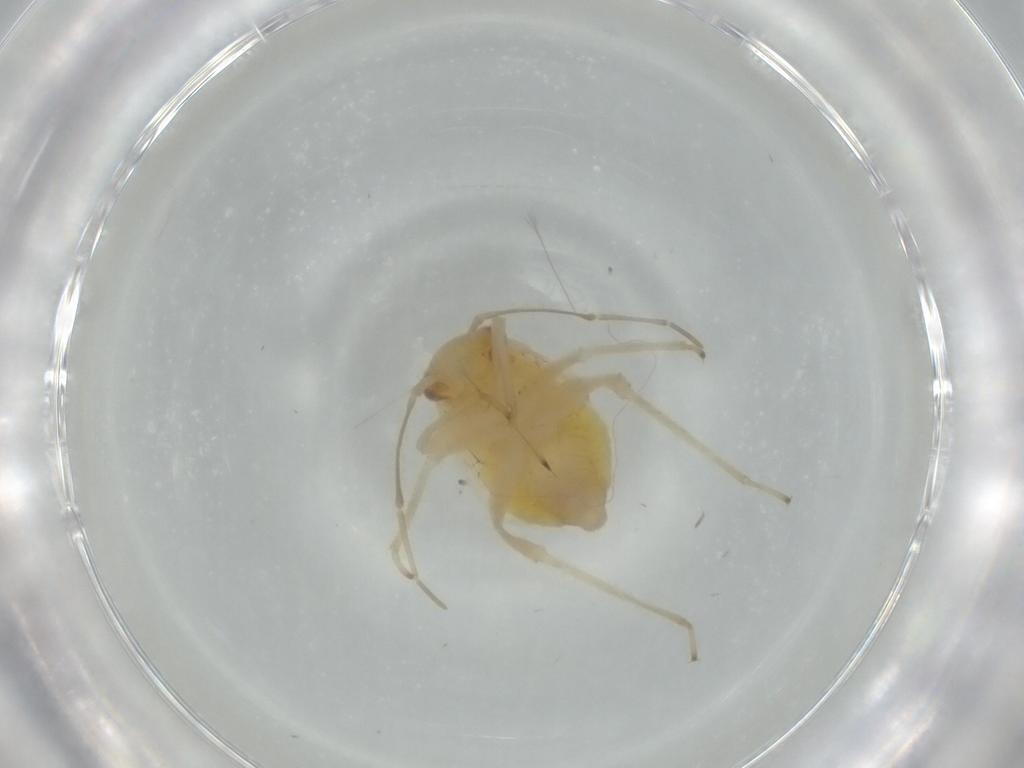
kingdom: Animalia
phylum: Arthropoda
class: Insecta
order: Hemiptera
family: Miridae
